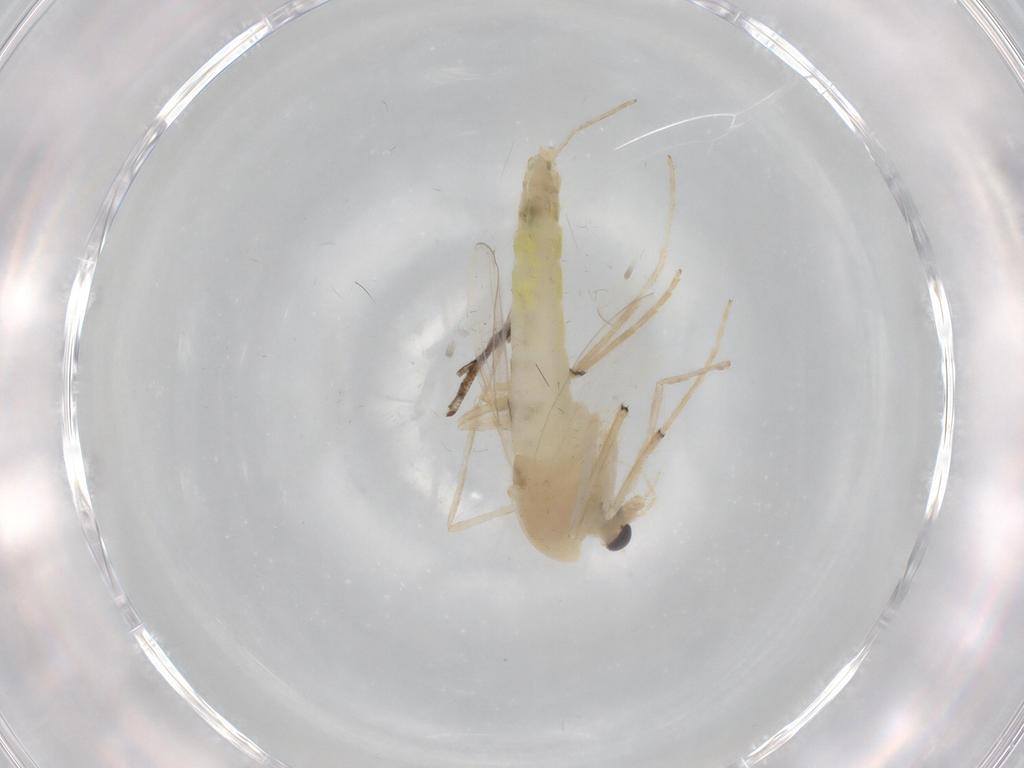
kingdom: Animalia
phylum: Arthropoda
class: Insecta
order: Diptera
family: Chironomidae
